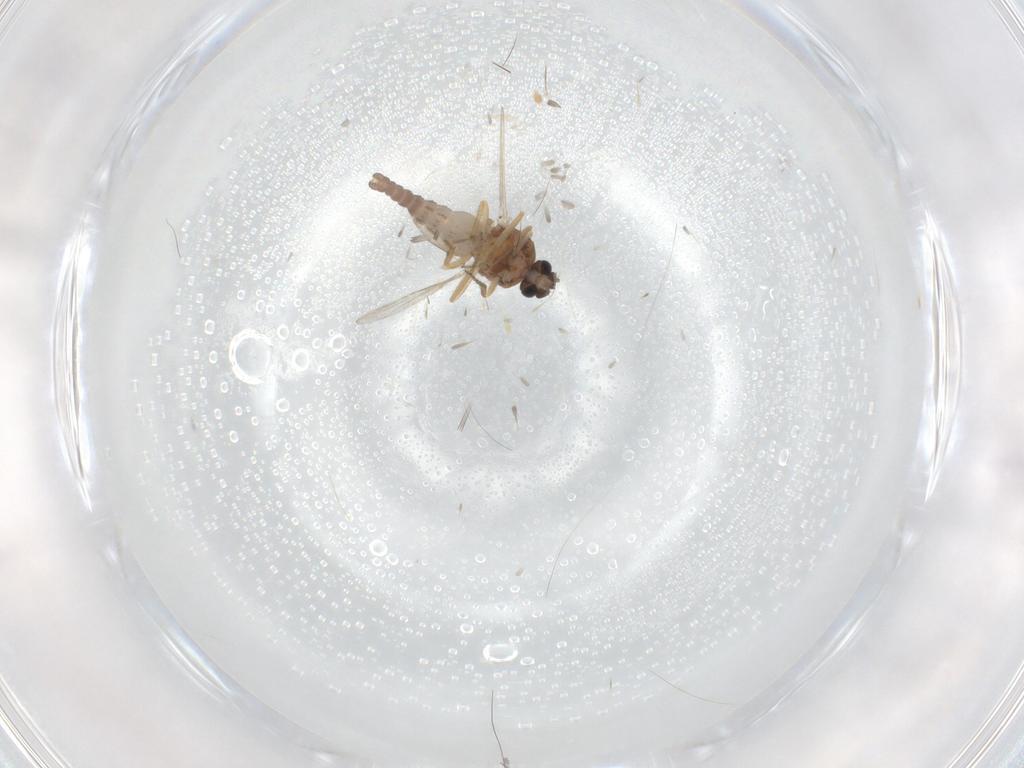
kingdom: Animalia
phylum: Arthropoda
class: Insecta
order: Diptera
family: Ceratopogonidae
